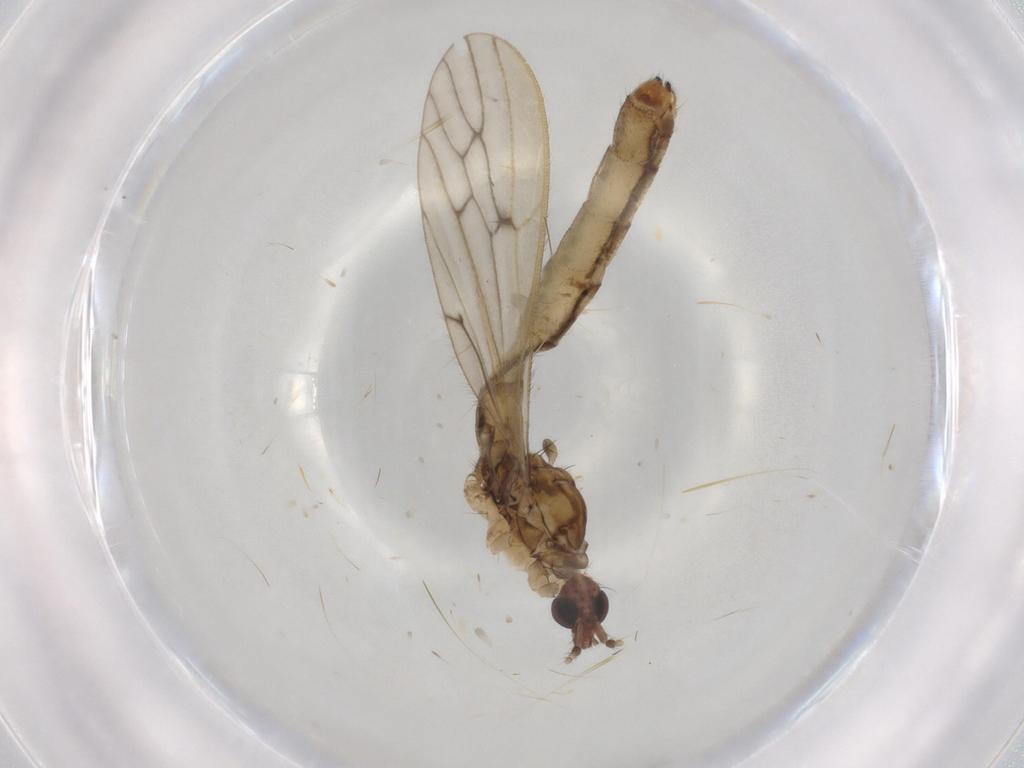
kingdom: Animalia
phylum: Arthropoda
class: Insecta
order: Diptera
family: Limoniidae
